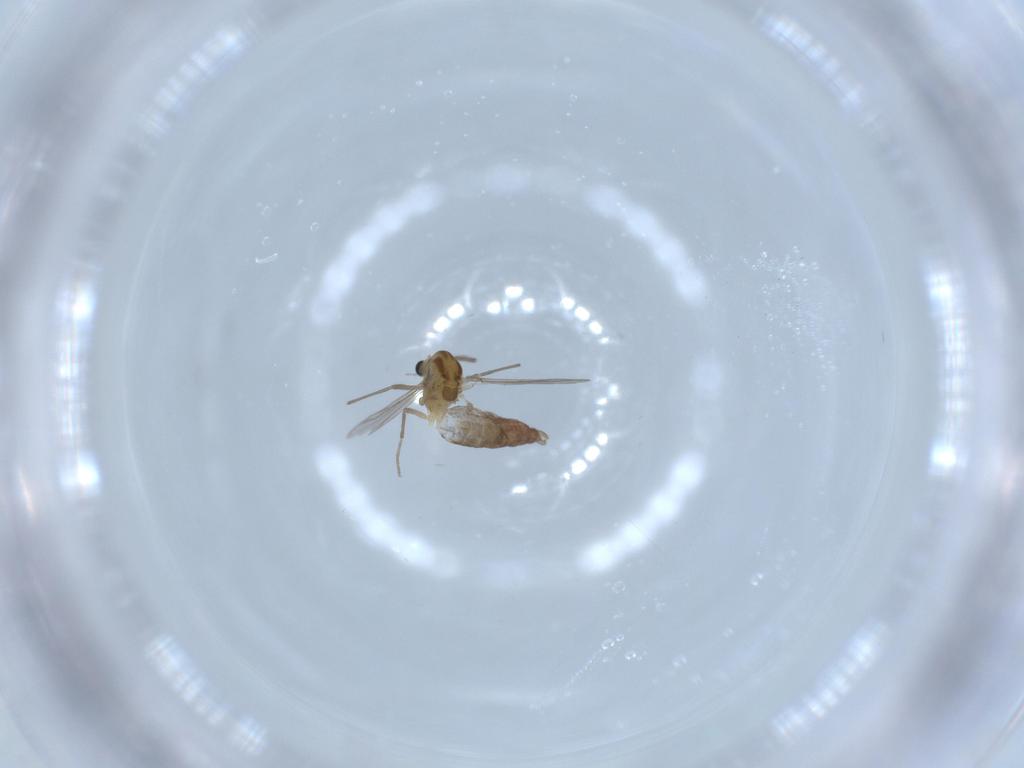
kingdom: Animalia
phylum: Arthropoda
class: Insecta
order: Diptera
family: Chironomidae
